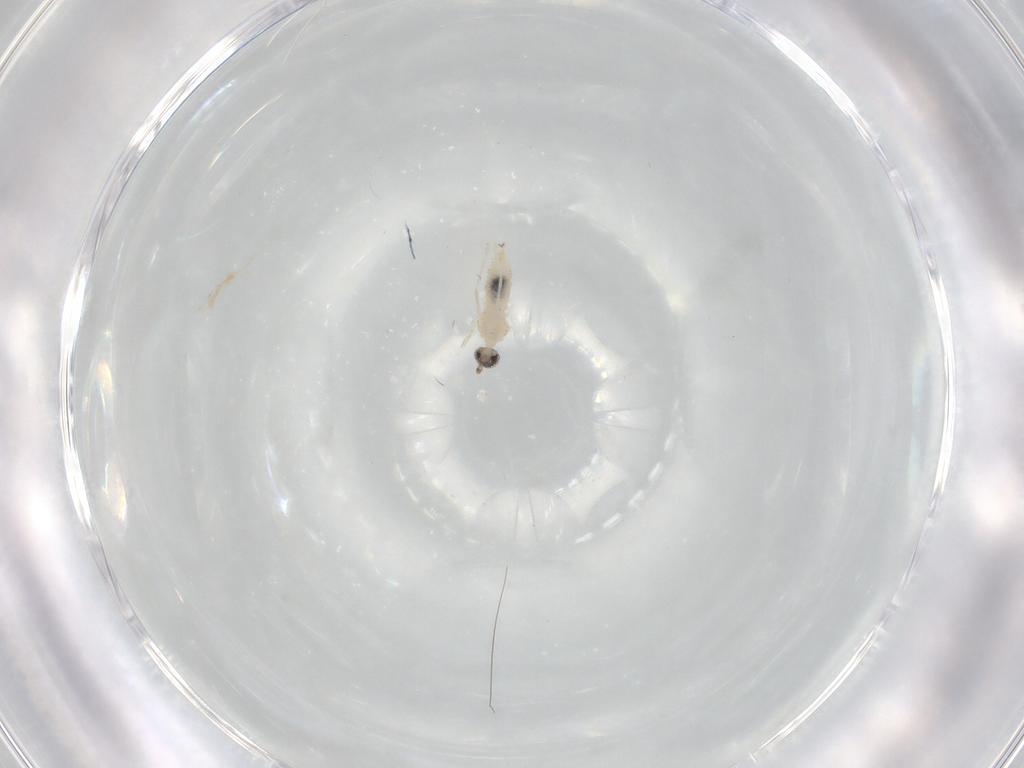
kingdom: Animalia
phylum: Arthropoda
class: Insecta
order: Diptera
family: Cecidomyiidae
